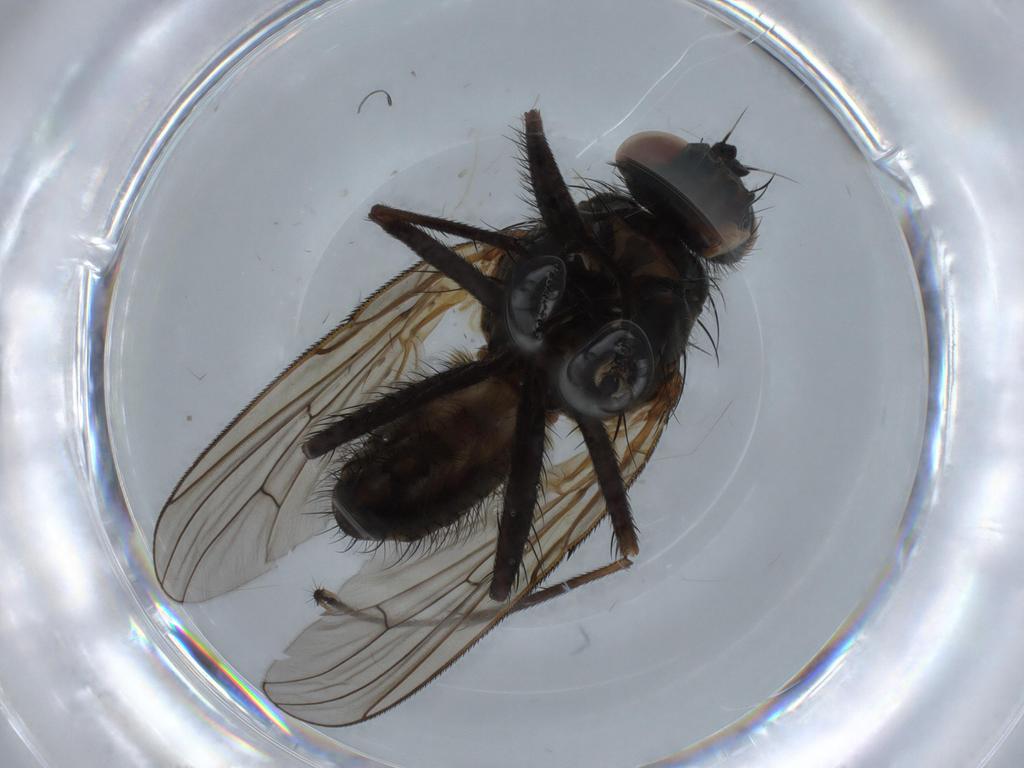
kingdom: Animalia
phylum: Arthropoda
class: Insecta
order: Diptera
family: Anthomyiidae
